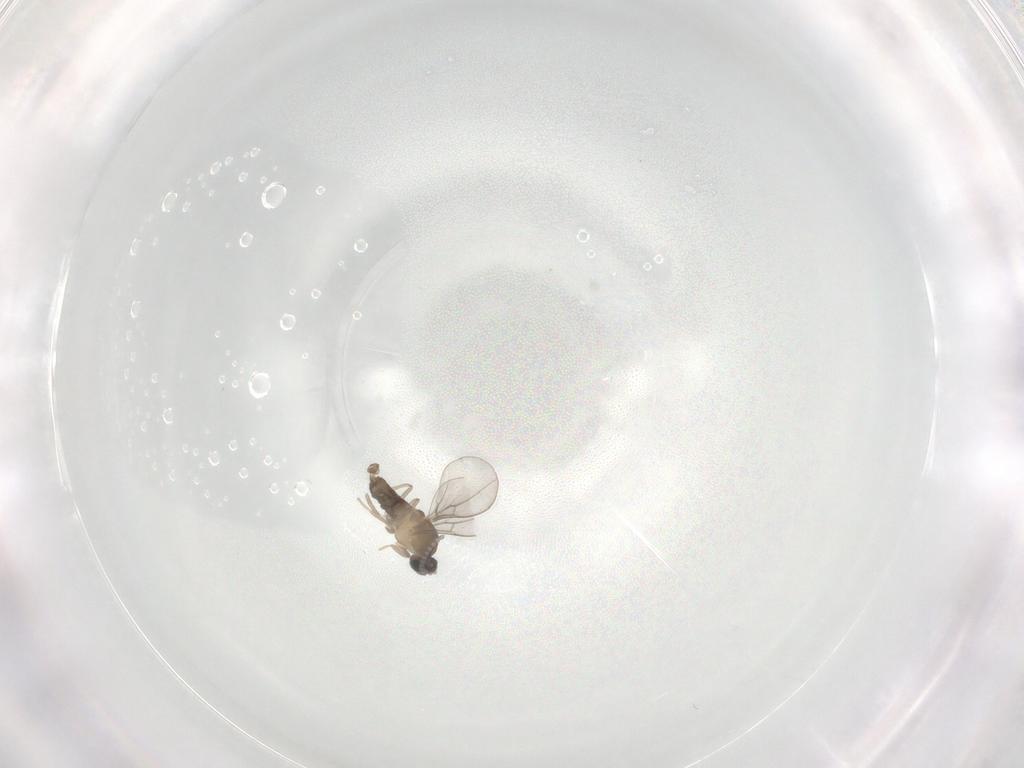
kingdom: Animalia
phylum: Arthropoda
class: Insecta
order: Diptera
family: Cecidomyiidae
